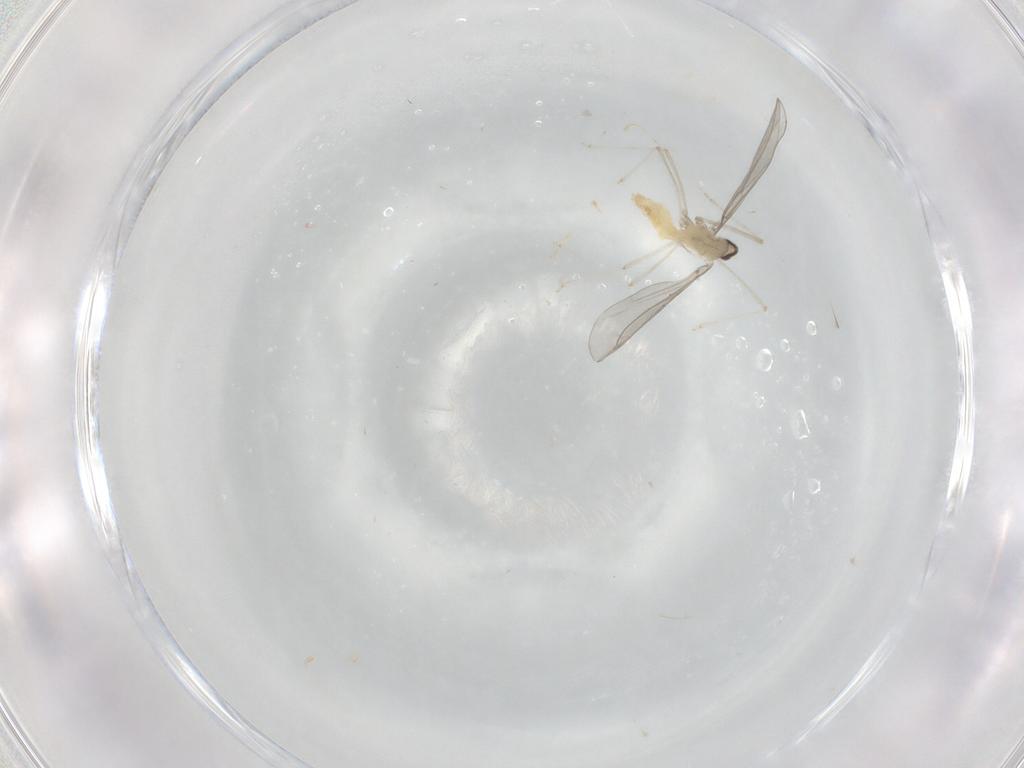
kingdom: Animalia
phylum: Arthropoda
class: Insecta
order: Diptera
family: Cecidomyiidae
